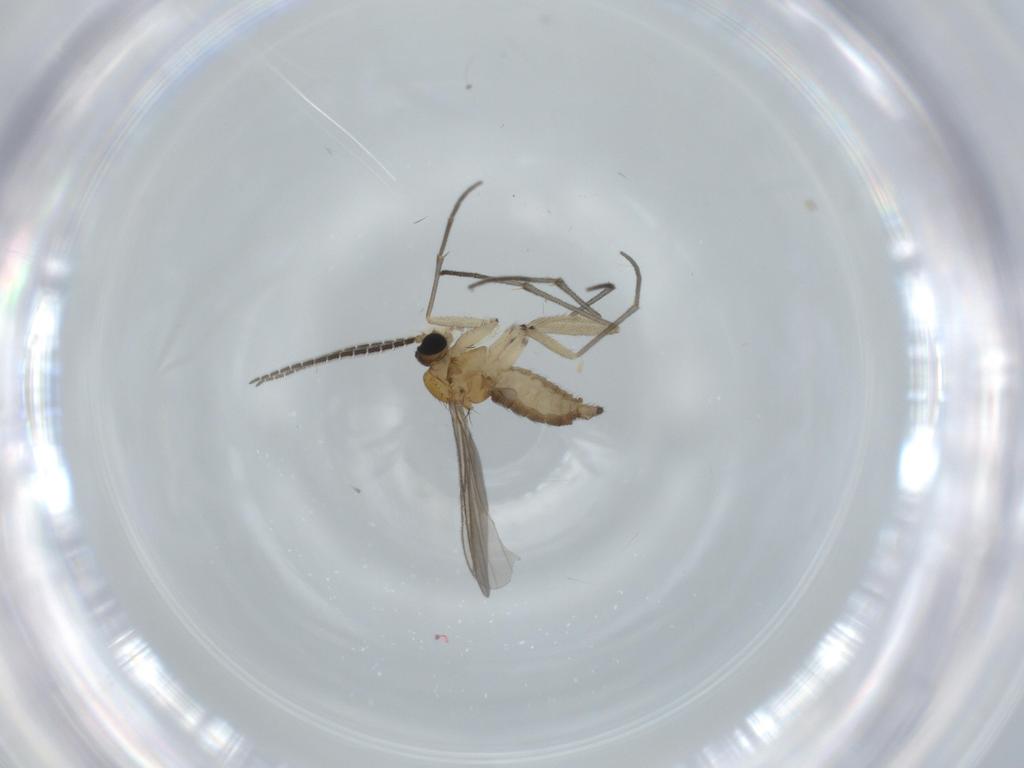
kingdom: Animalia
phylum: Arthropoda
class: Insecta
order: Diptera
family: Sciaridae
